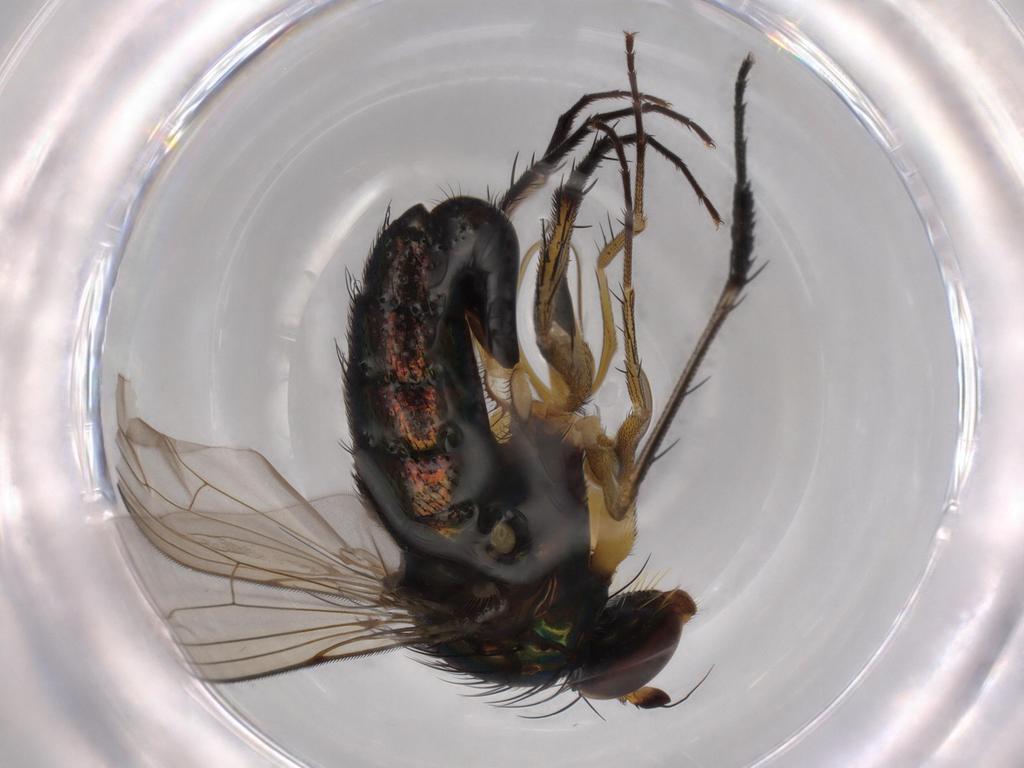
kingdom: Animalia
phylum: Arthropoda
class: Insecta
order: Diptera
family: Dolichopodidae
